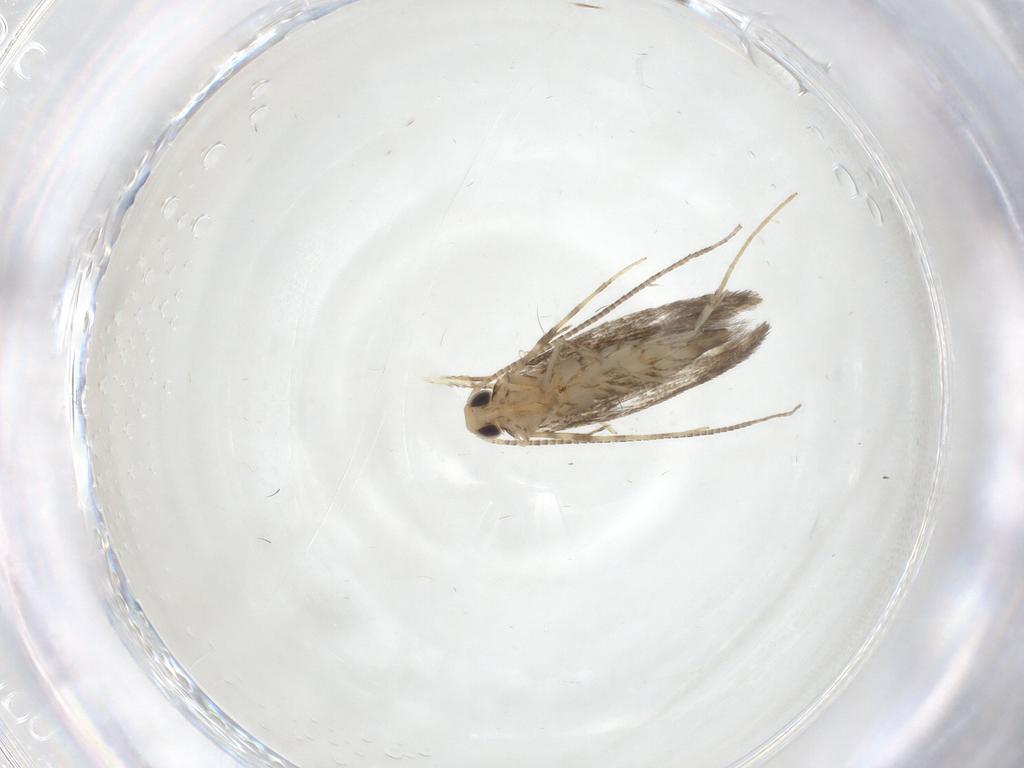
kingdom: Animalia
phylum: Arthropoda
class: Insecta
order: Lepidoptera
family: Gracillariidae
